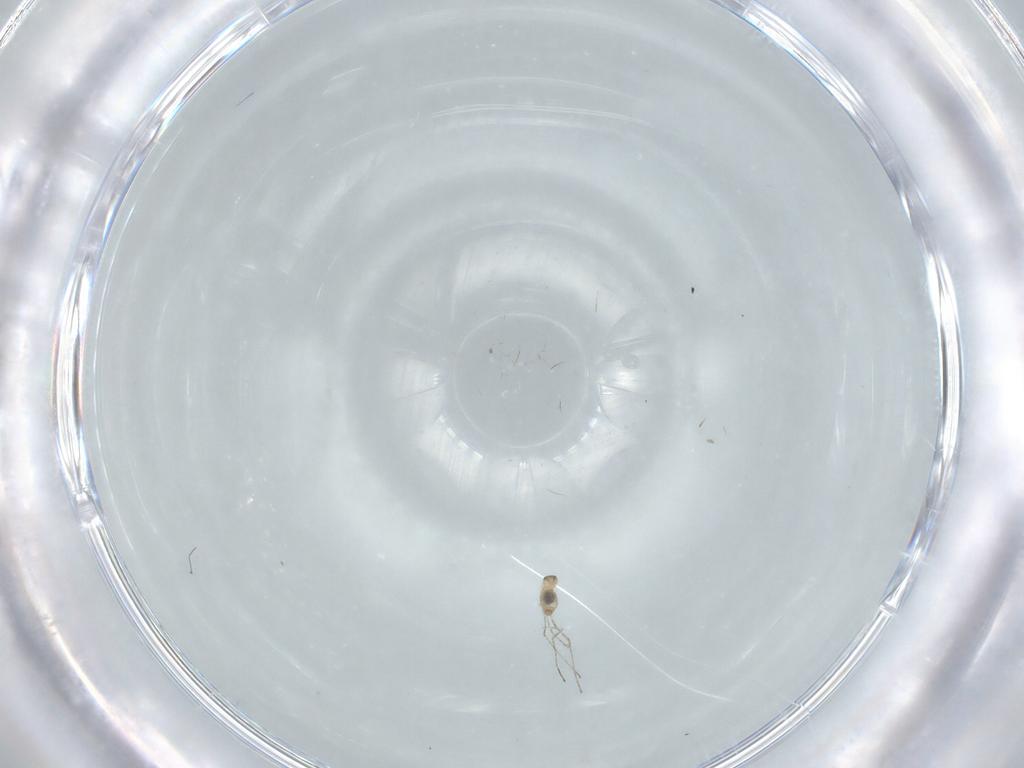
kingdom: Animalia
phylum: Arthropoda
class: Insecta
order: Diptera
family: Cecidomyiidae
